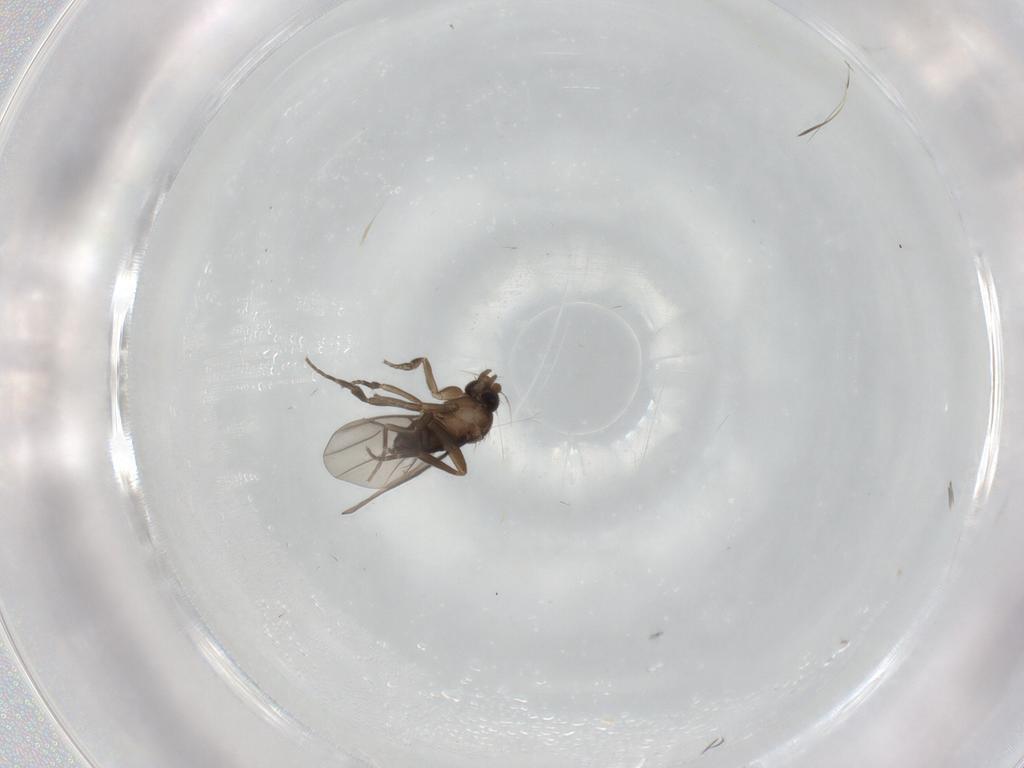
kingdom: Animalia
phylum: Arthropoda
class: Insecta
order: Diptera
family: Phoridae
